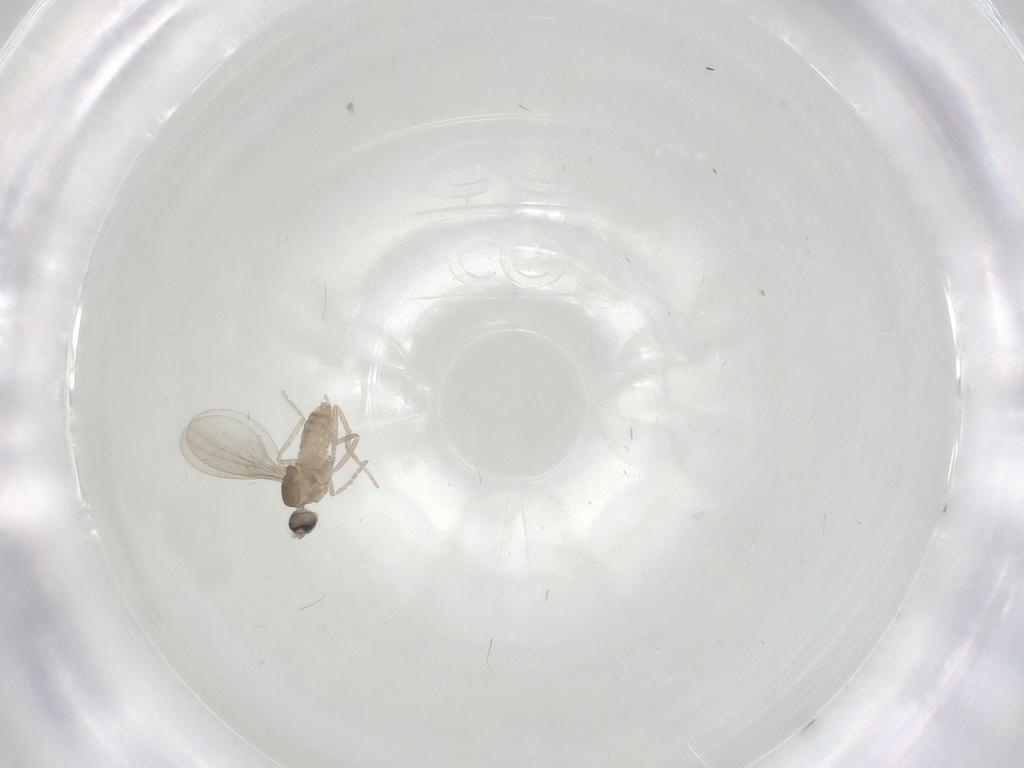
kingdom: Animalia
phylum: Arthropoda
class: Insecta
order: Diptera
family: Cecidomyiidae
